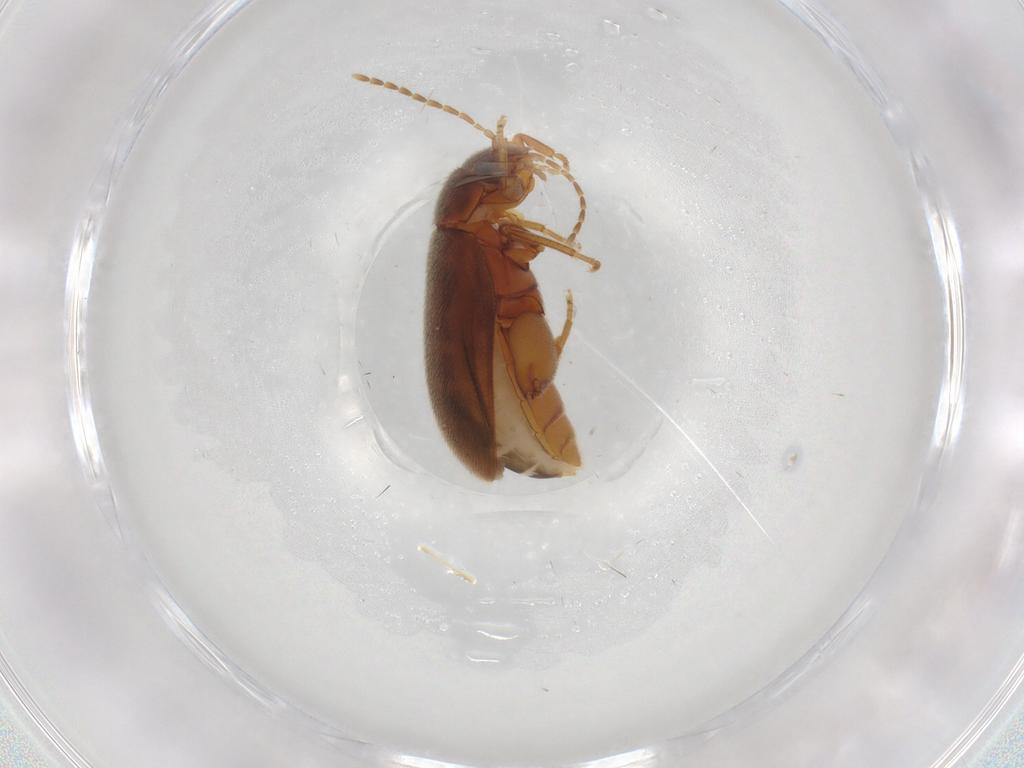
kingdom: Animalia
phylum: Arthropoda
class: Insecta
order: Coleoptera
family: Scirtidae
